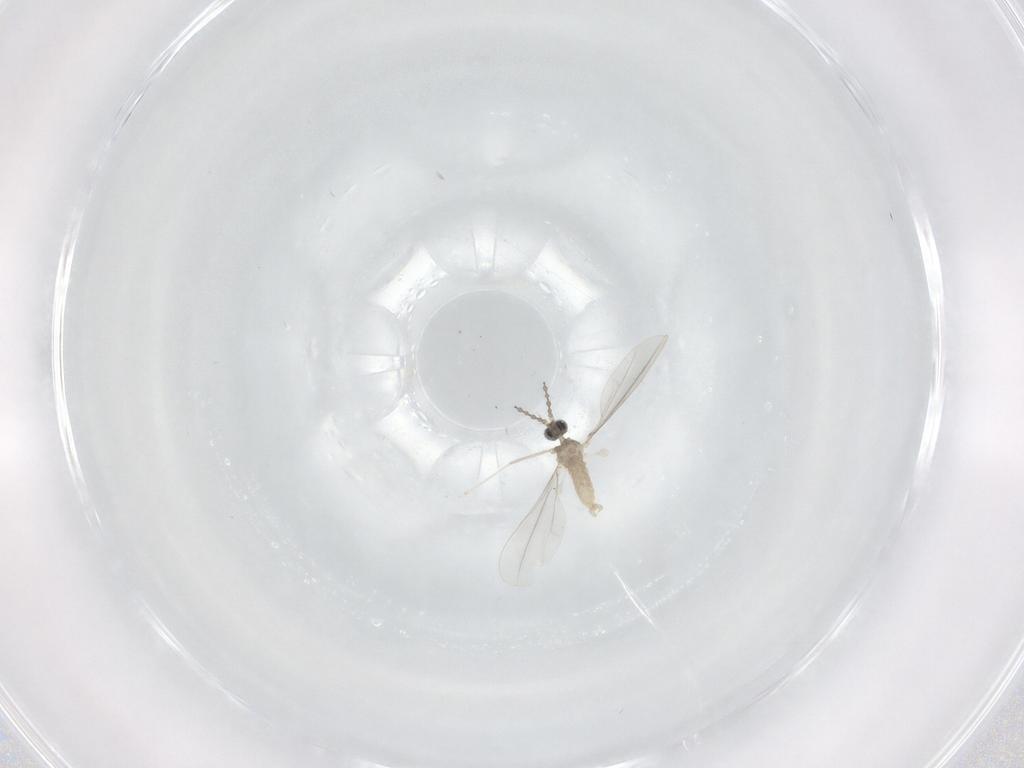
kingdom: Animalia
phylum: Arthropoda
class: Insecta
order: Diptera
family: Cecidomyiidae
